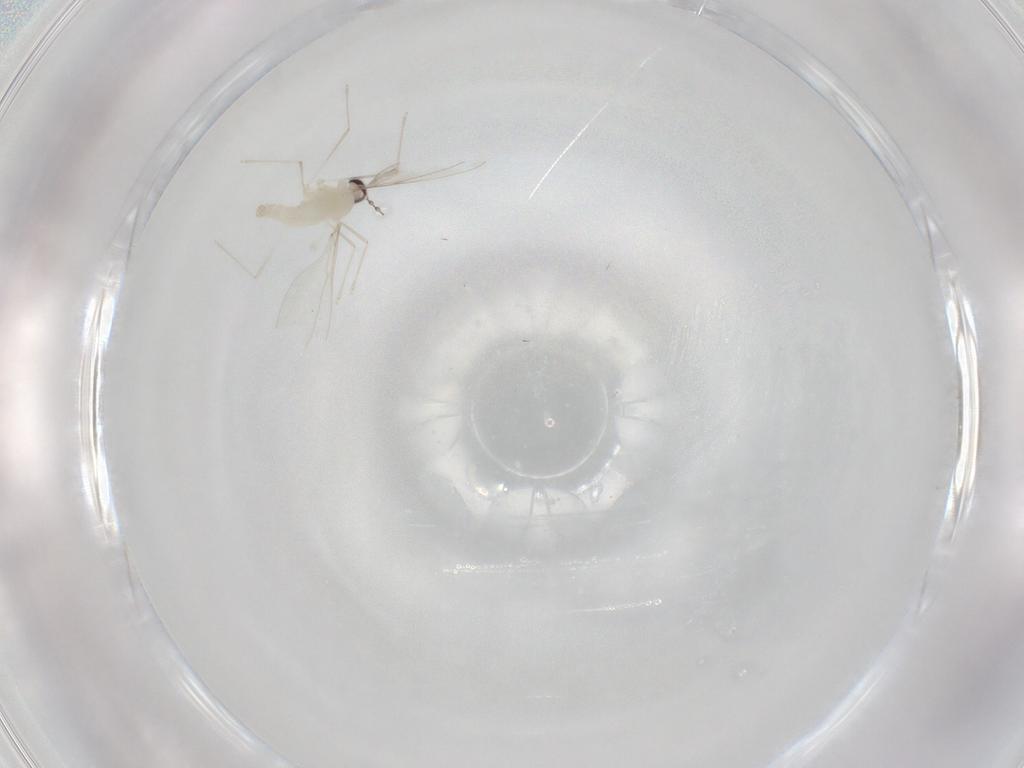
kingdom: Animalia
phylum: Arthropoda
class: Insecta
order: Diptera
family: Cecidomyiidae
